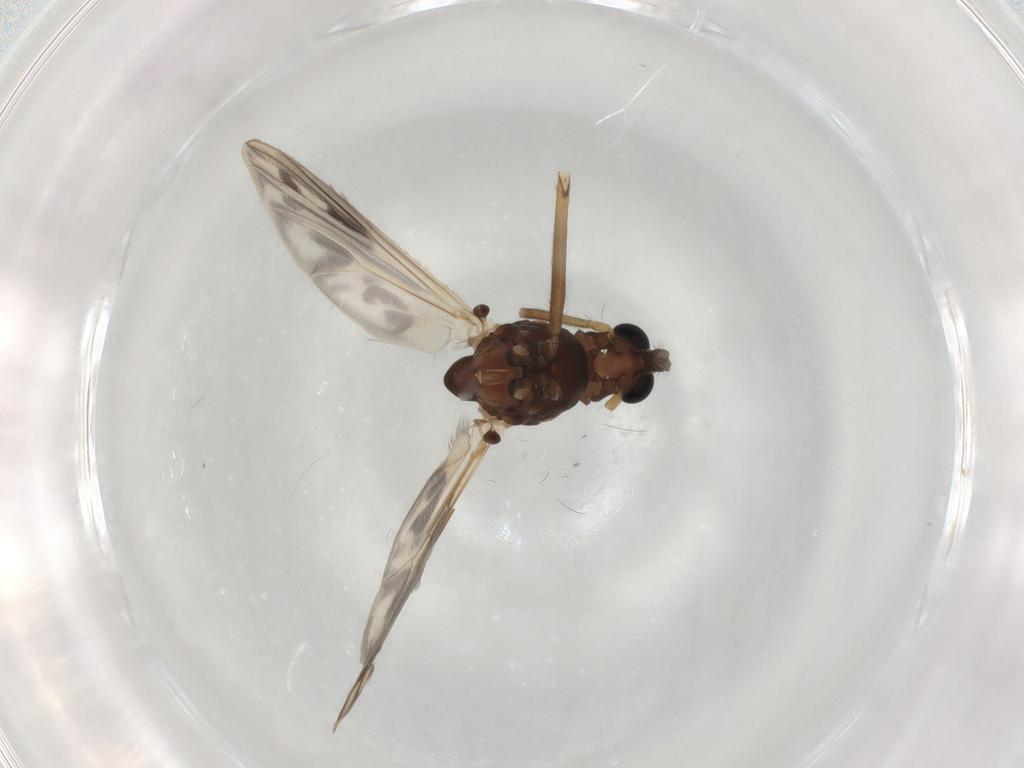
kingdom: Animalia
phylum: Arthropoda
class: Insecta
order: Diptera
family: Chironomidae
